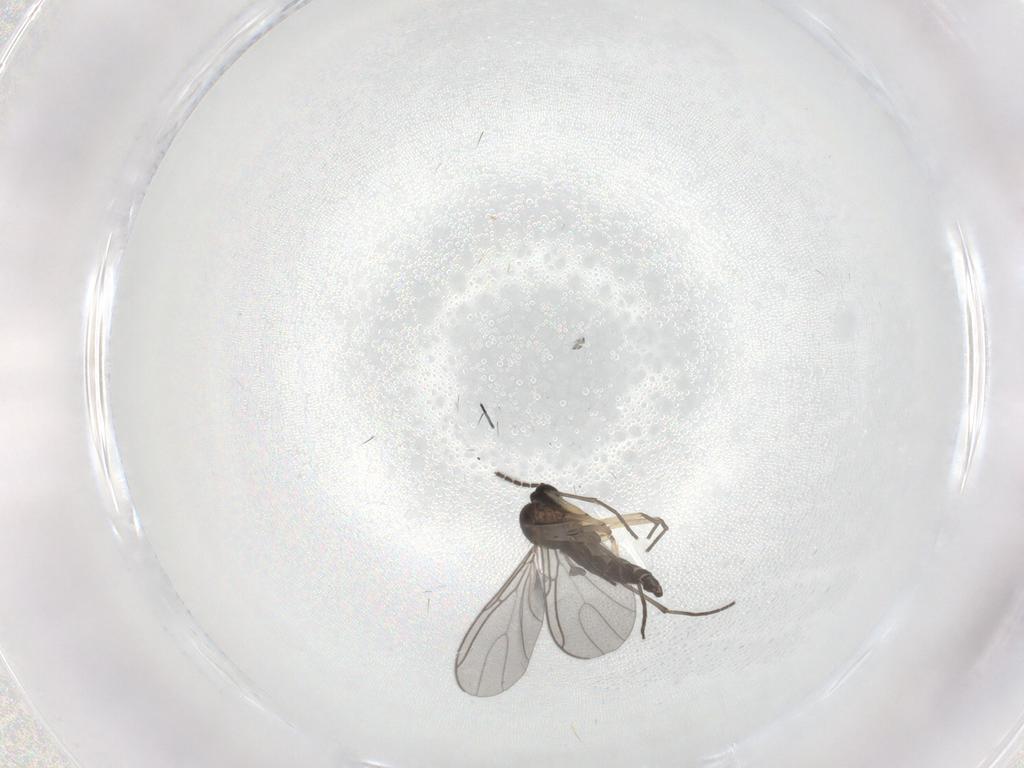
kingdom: Animalia
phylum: Arthropoda
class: Insecta
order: Diptera
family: Sciaridae
